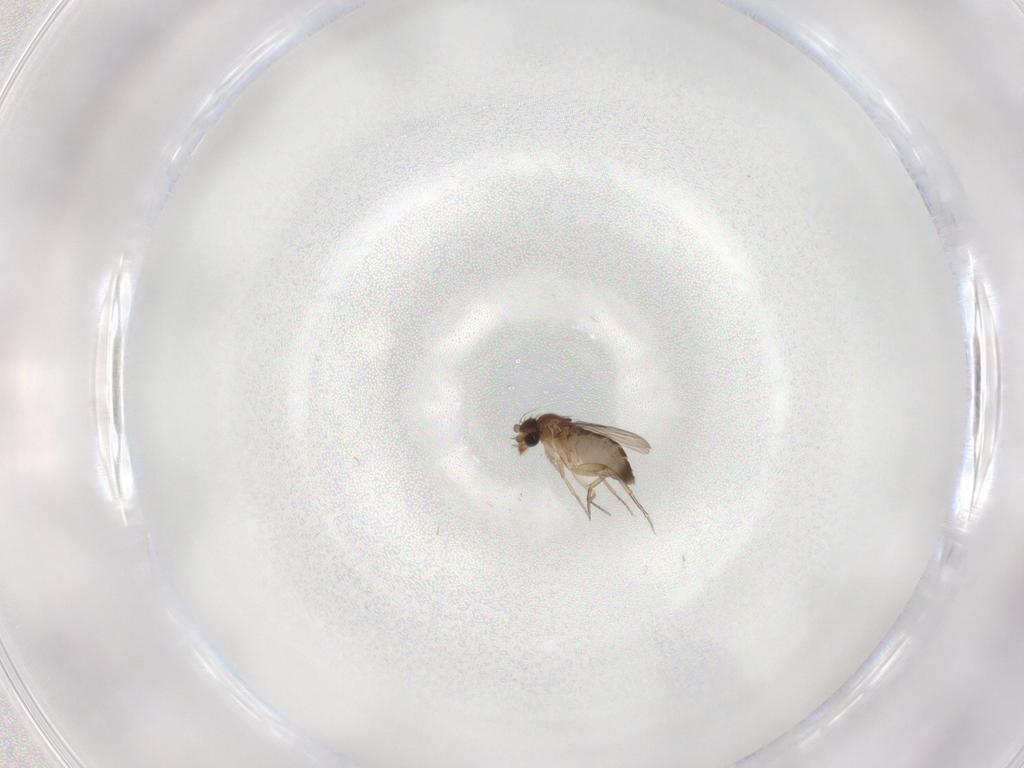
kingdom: Animalia
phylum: Arthropoda
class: Insecta
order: Diptera
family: Phoridae
